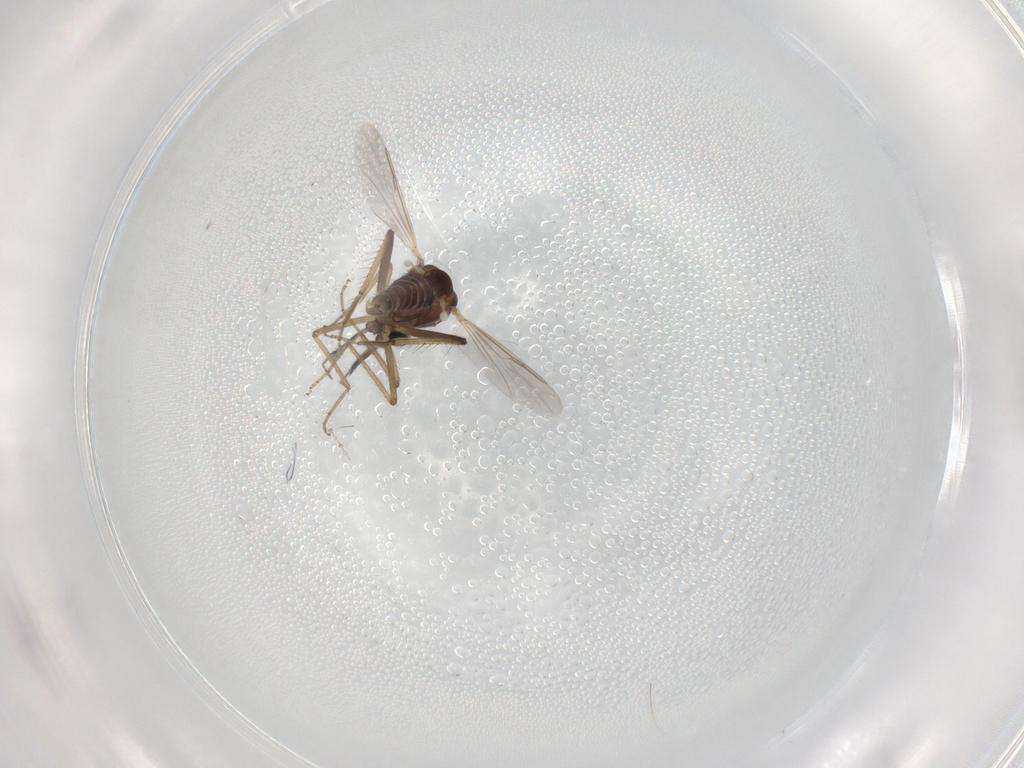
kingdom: Animalia
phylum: Arthropoda
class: Insecta
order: Diptera
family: Ceratopogonidae
